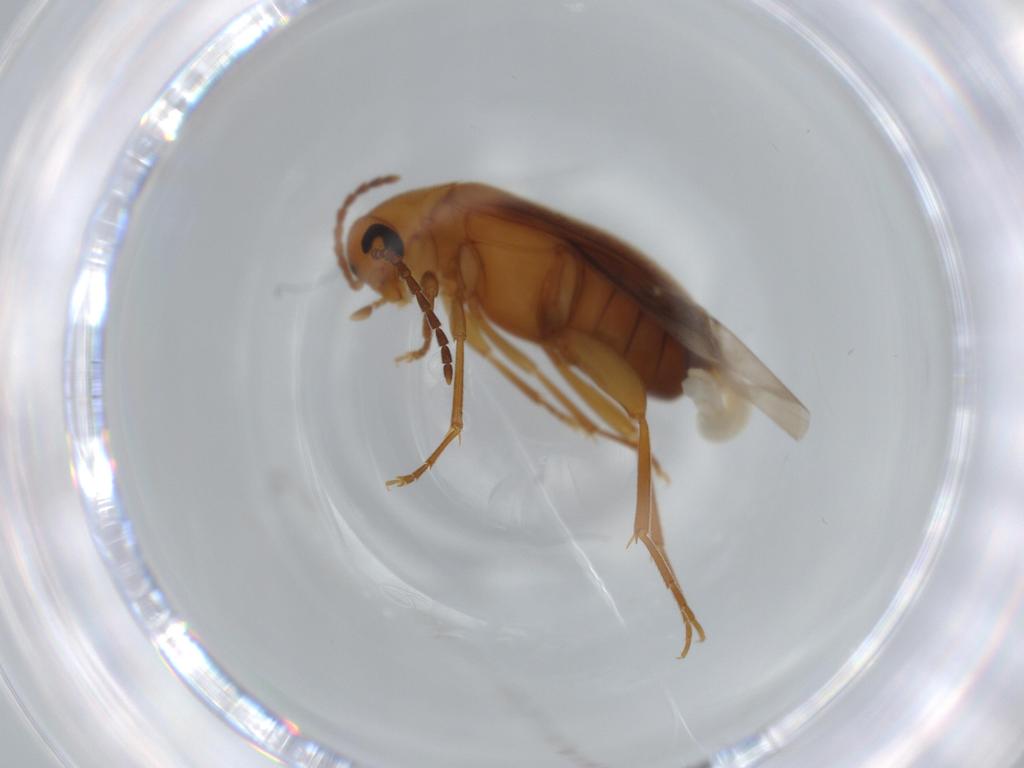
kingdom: Animalia
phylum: Arthropoda
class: Insecta
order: Coleoptera
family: Scraptiidae
